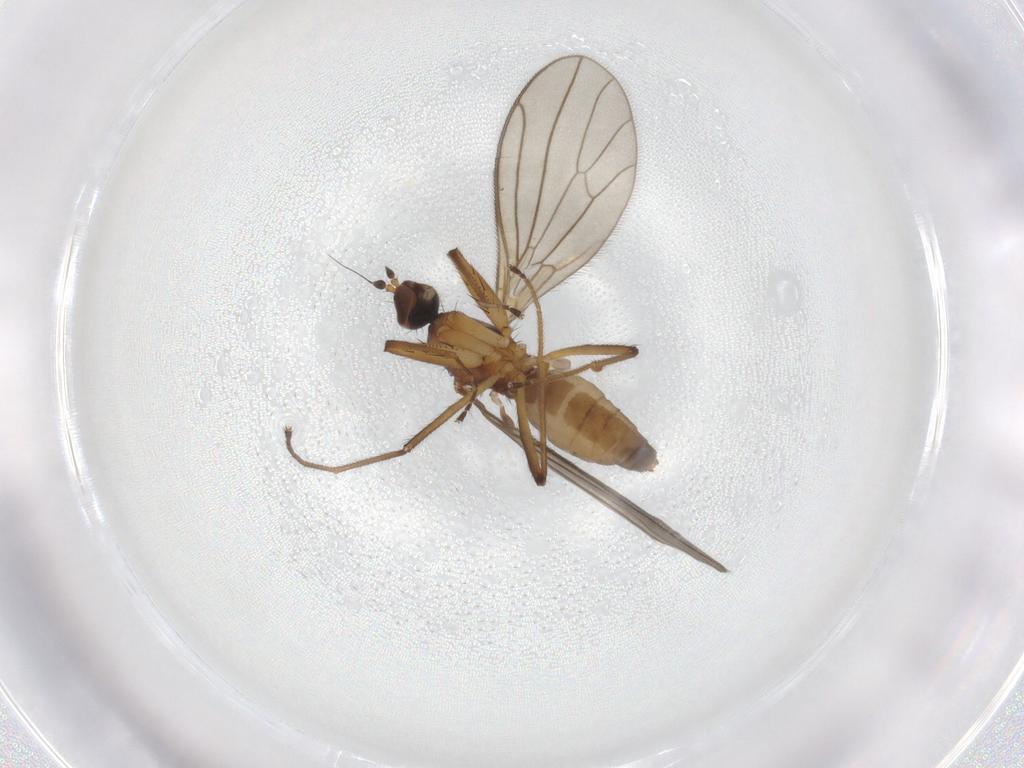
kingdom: Animalia
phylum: Arthropoda
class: Insecta
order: Diptera
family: Empididae
